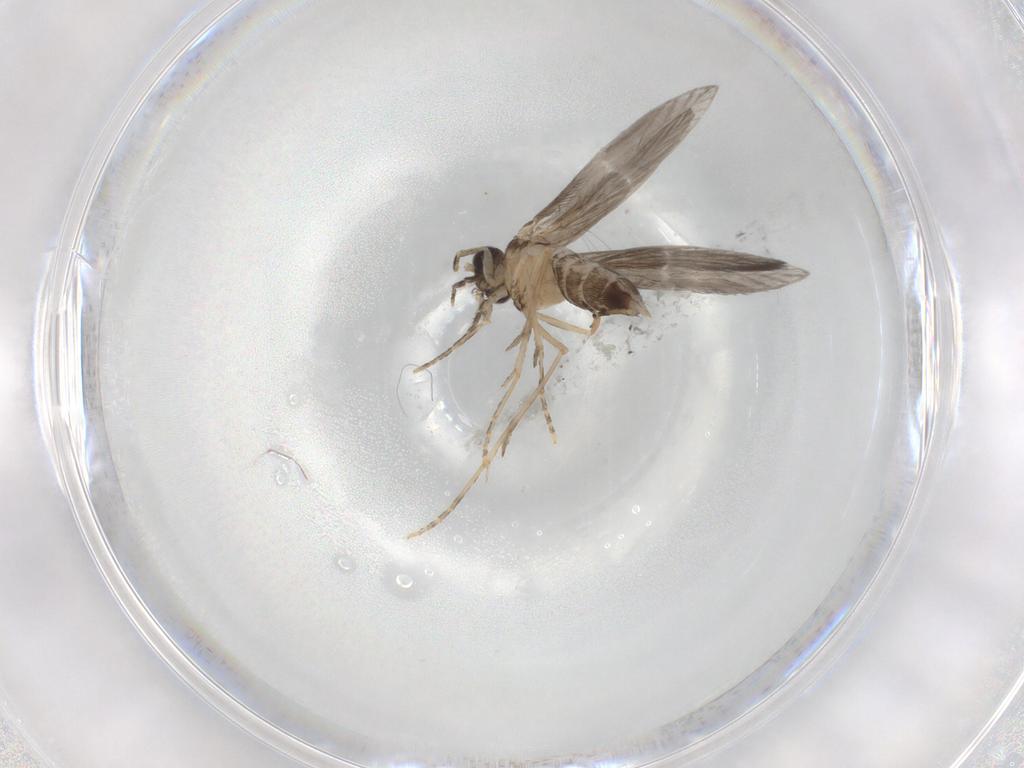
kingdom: Animalia
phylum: Arthropoda
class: Insecta
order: Trichoptera
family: Hydroptilidae
